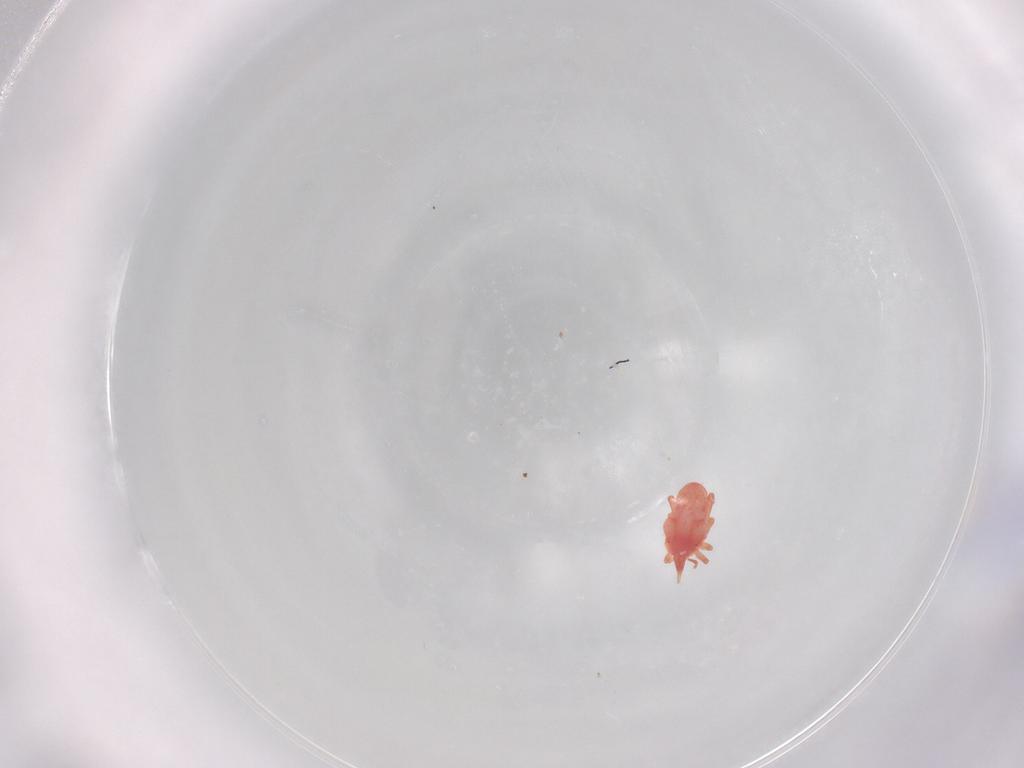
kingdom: Animalia
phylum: Arthropoda
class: Arachnida
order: Trombidiformes
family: Bdellidae
